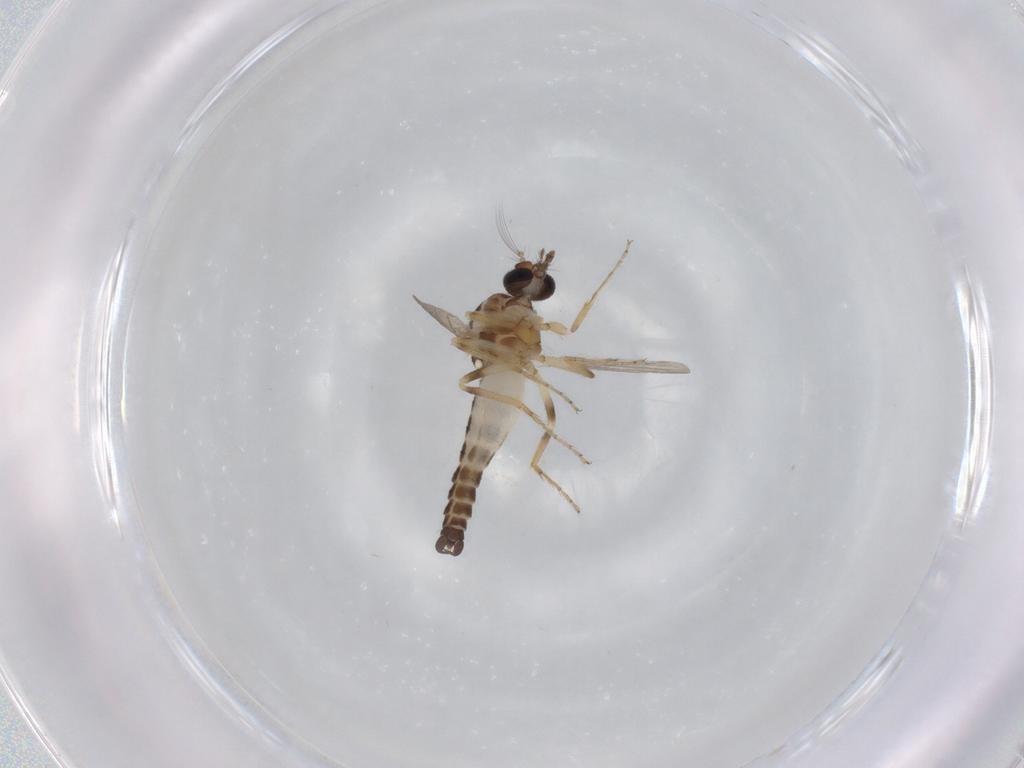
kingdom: Animalia
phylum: Arthropoda
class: Insecta
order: Diptera
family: Ceratopogonidae
